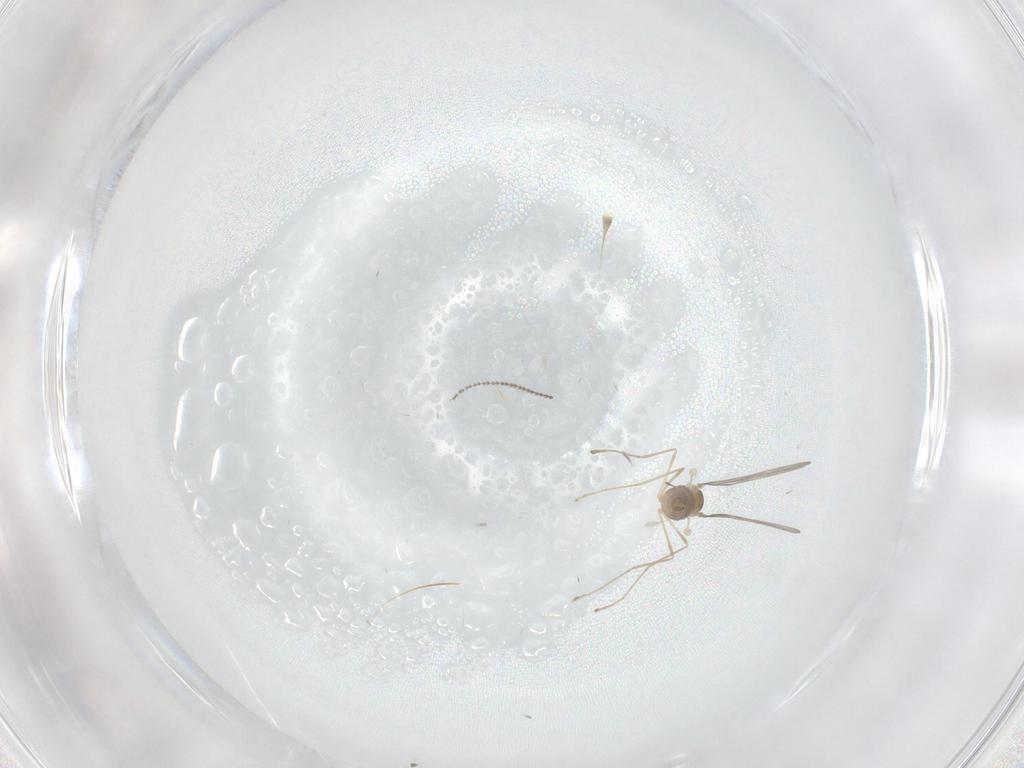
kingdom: Animalia
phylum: Arthropoda
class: Insecta
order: Diptera
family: Cecidomyiidae
